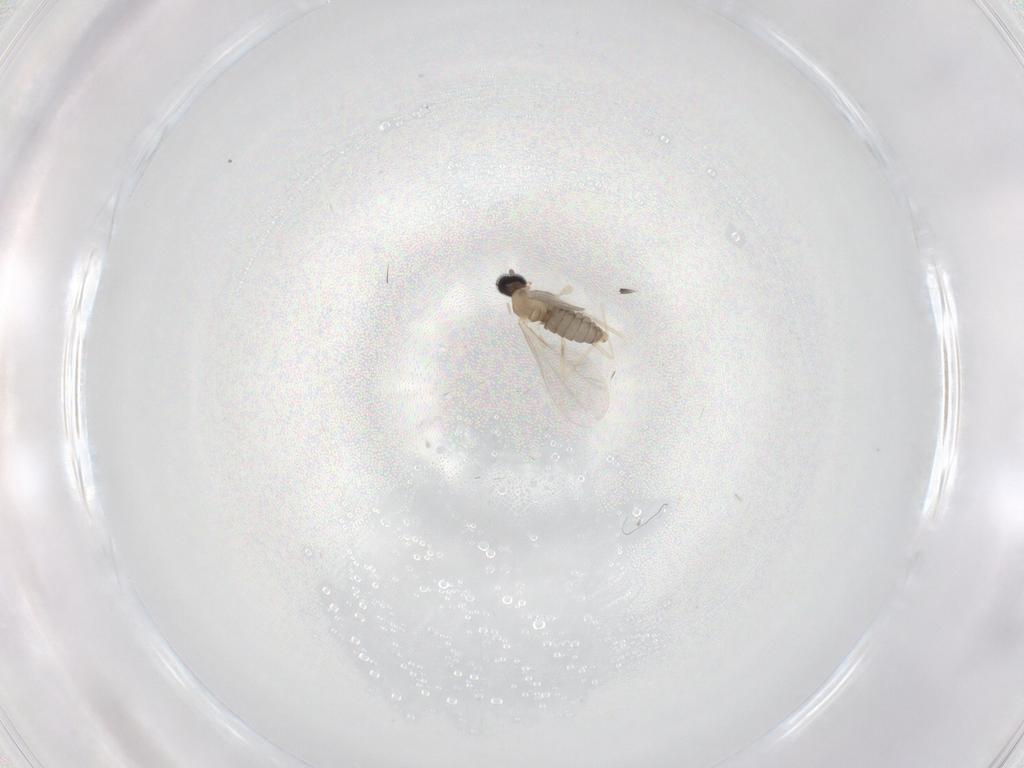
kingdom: Animalia
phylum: Arthropoda
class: Insecta
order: Diptera
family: Cecidomyiidae
